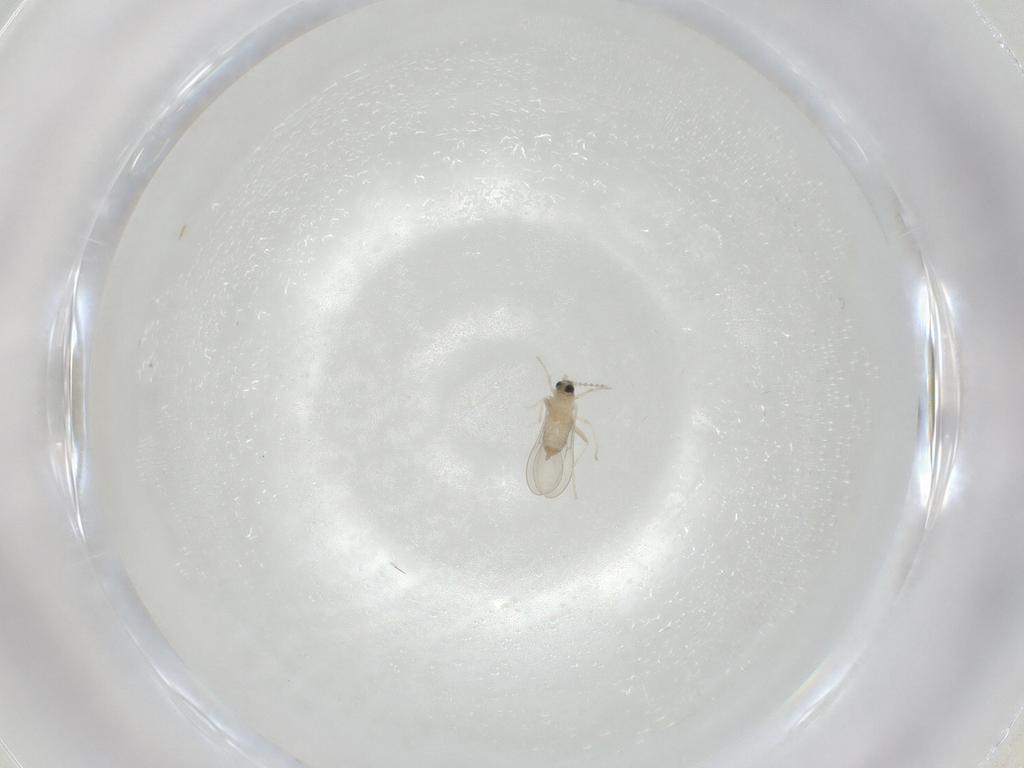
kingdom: Animalia
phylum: Arthropoda
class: Insecta
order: Diptera
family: Cecidomyiidae
